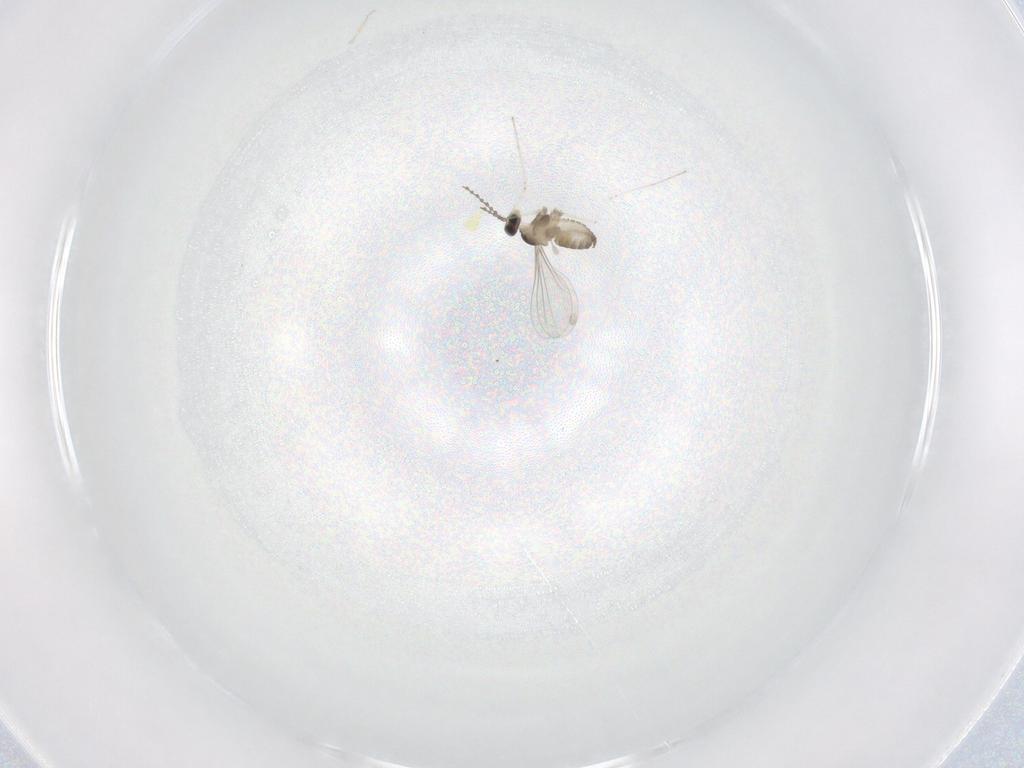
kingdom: Animalia
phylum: Arthropoda
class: Insecta
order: Diptera
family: Cecidomyiidae
